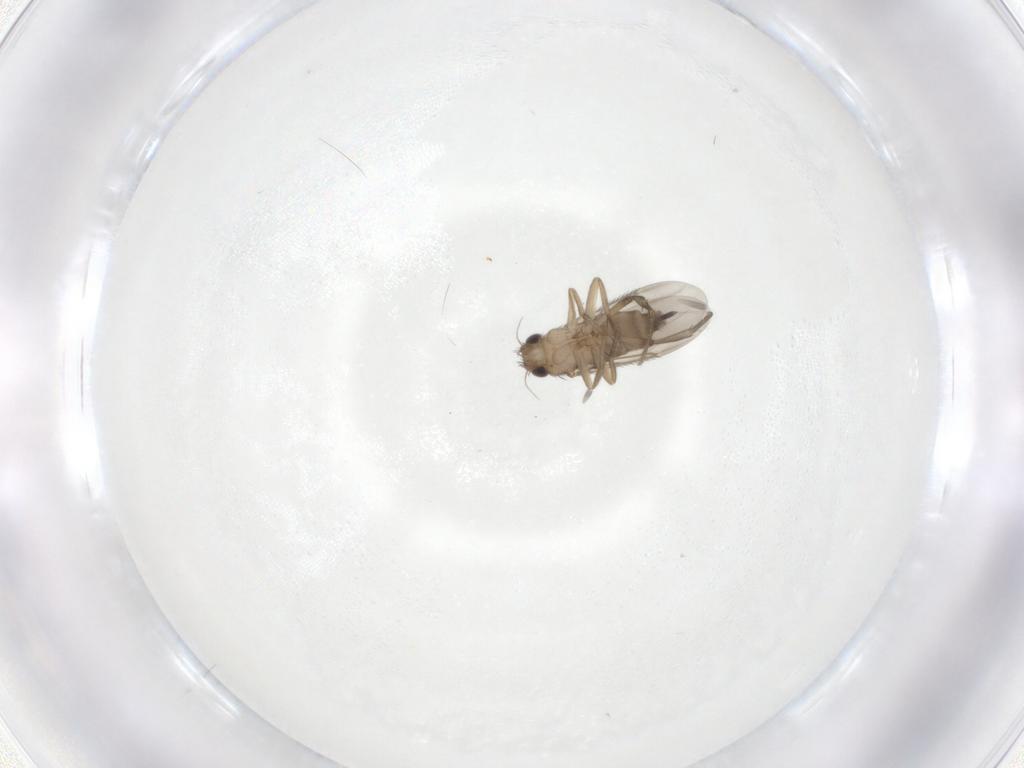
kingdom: Animalia
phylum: Arthropoda
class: Insecta
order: Diptera
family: Phoridae
